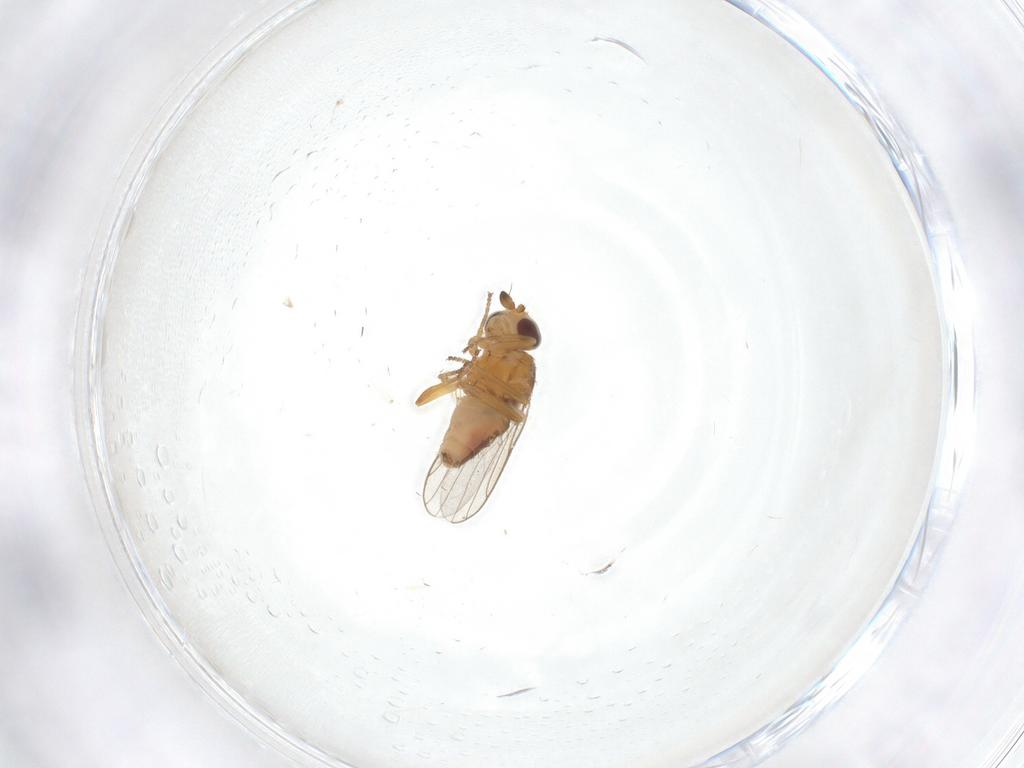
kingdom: Animalia
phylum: Arthropoda
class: Insecta
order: Diptera
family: Chloropidae
